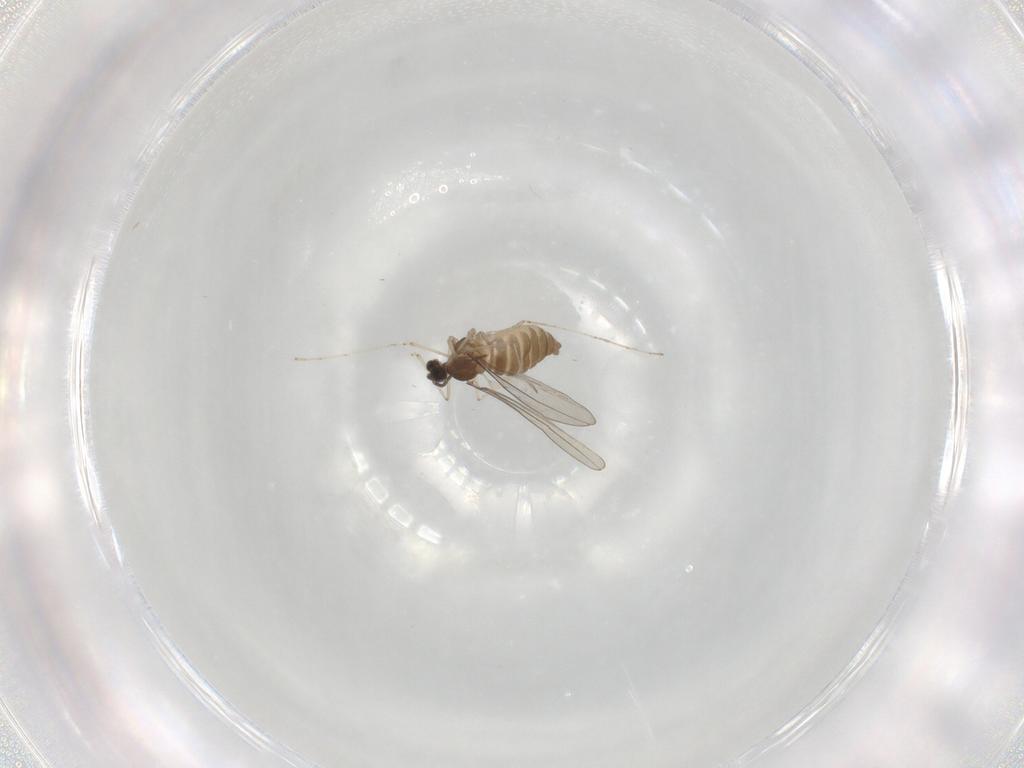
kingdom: Animalia
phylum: Arthropoda
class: Insecta
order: Diptera
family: Cecidomyiidae
